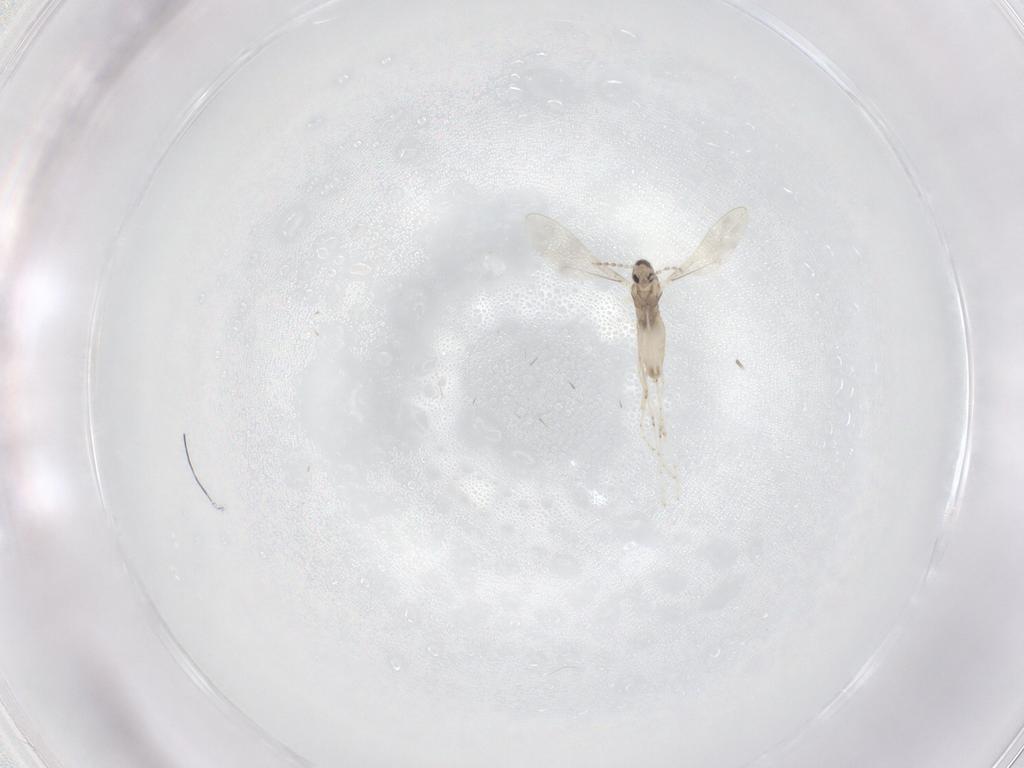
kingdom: Animalia
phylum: Arthropoda
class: Insecta
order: Diptera
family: Cecidomyiidae
